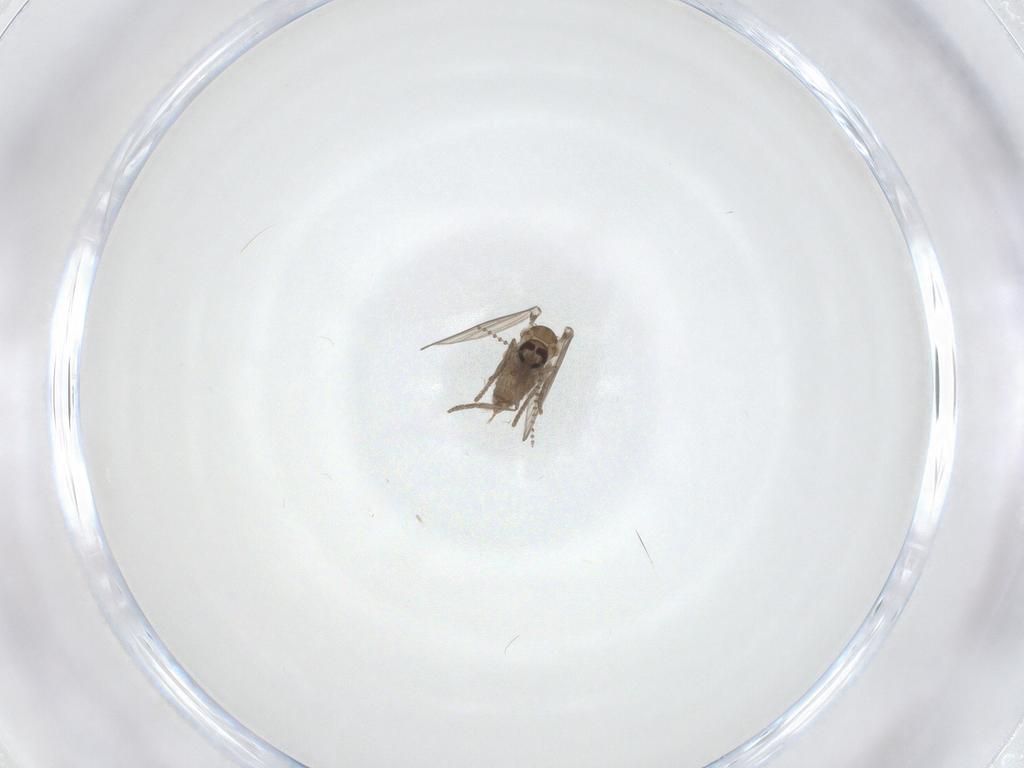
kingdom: Animalia
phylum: Arthropoda
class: Insecta
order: Diptera
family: Psychodidae
